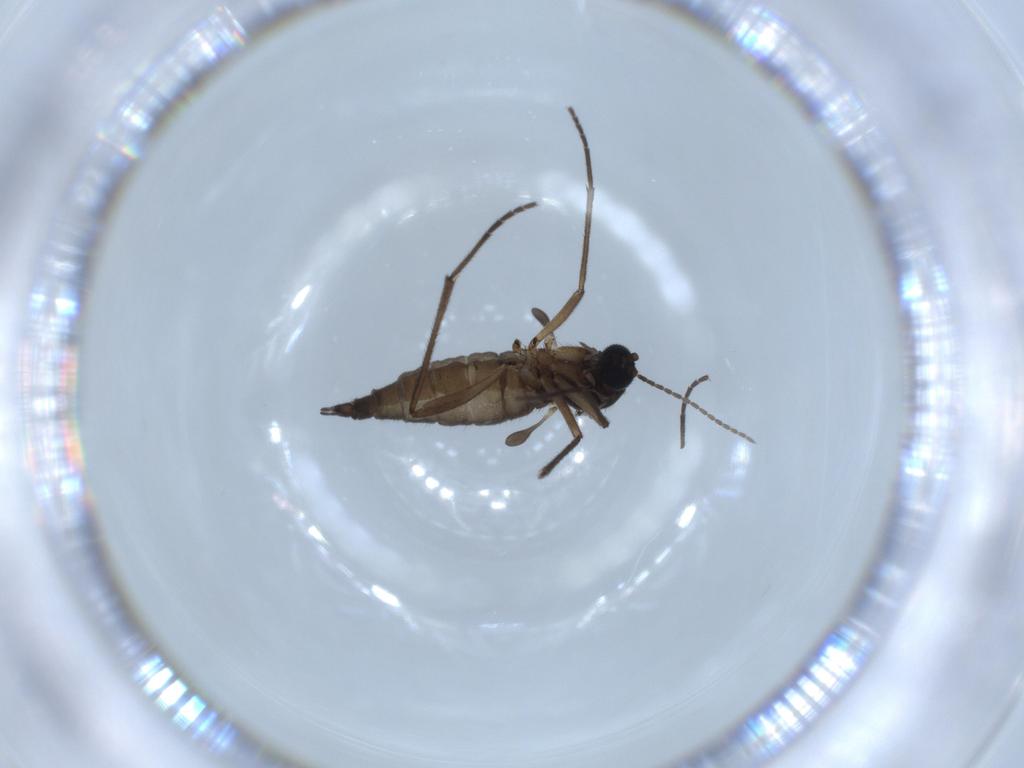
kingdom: Animalia
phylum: Arthropoda
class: Insecta
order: Diptera
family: Sciaridae
